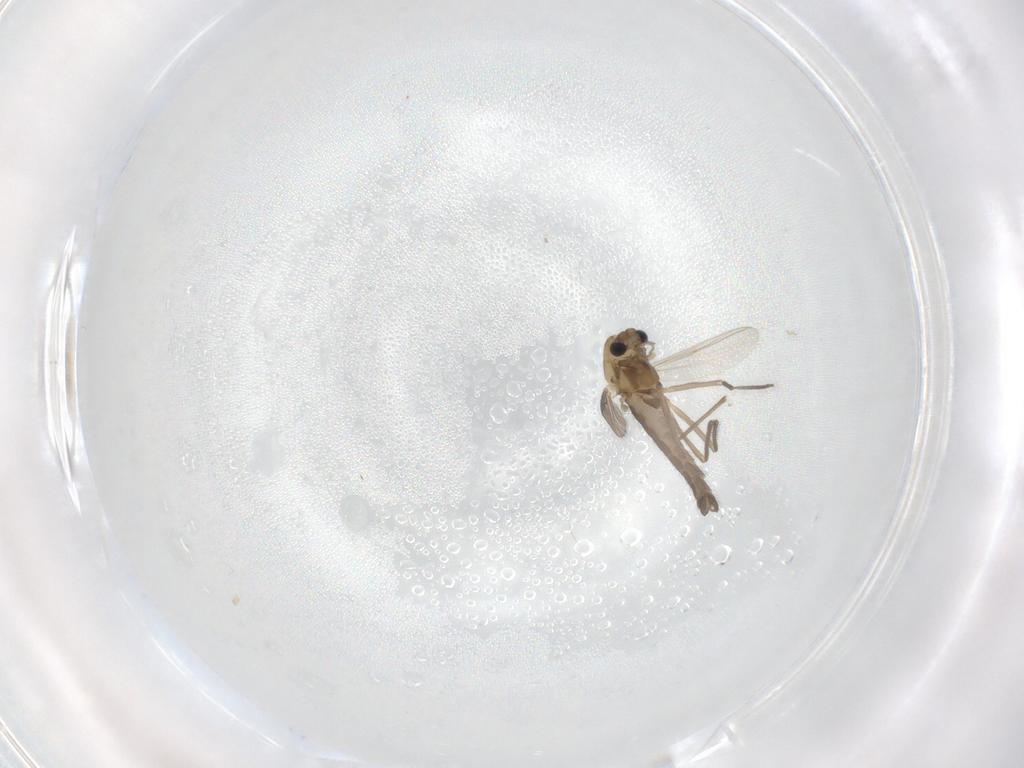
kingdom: Animalia
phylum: Arthropoda
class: Insecta
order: Diptera
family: Chironomidae
